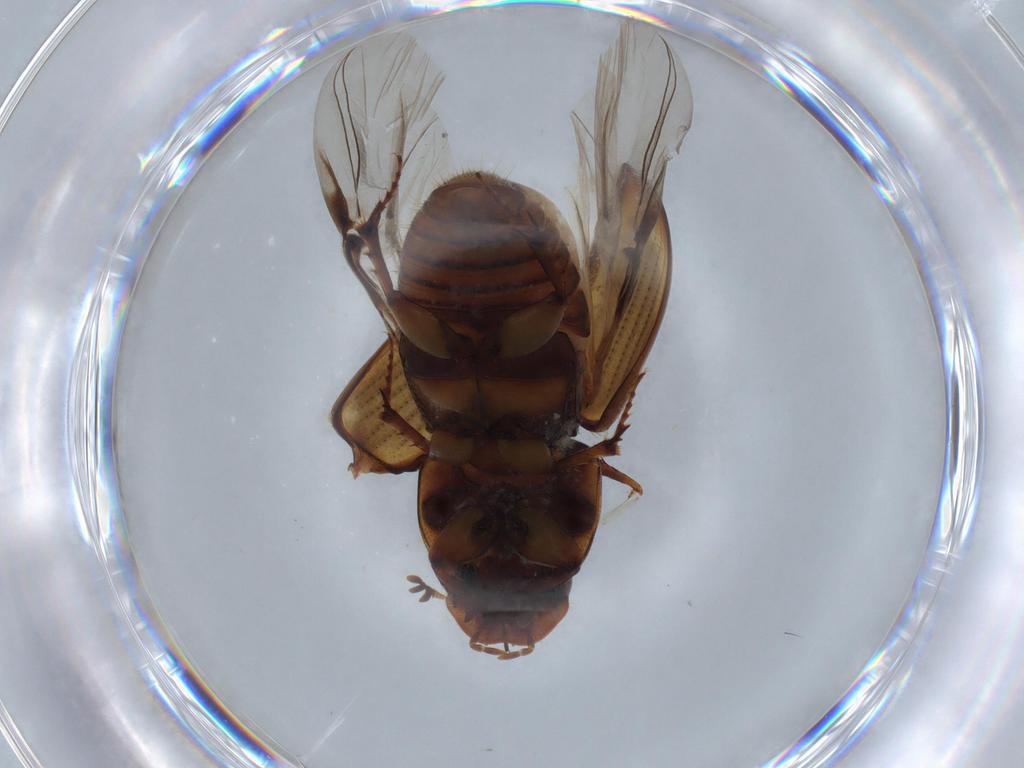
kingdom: Animalia
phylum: Arthropoda
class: Insecta
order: Coleoptera
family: Scarabaeidae
